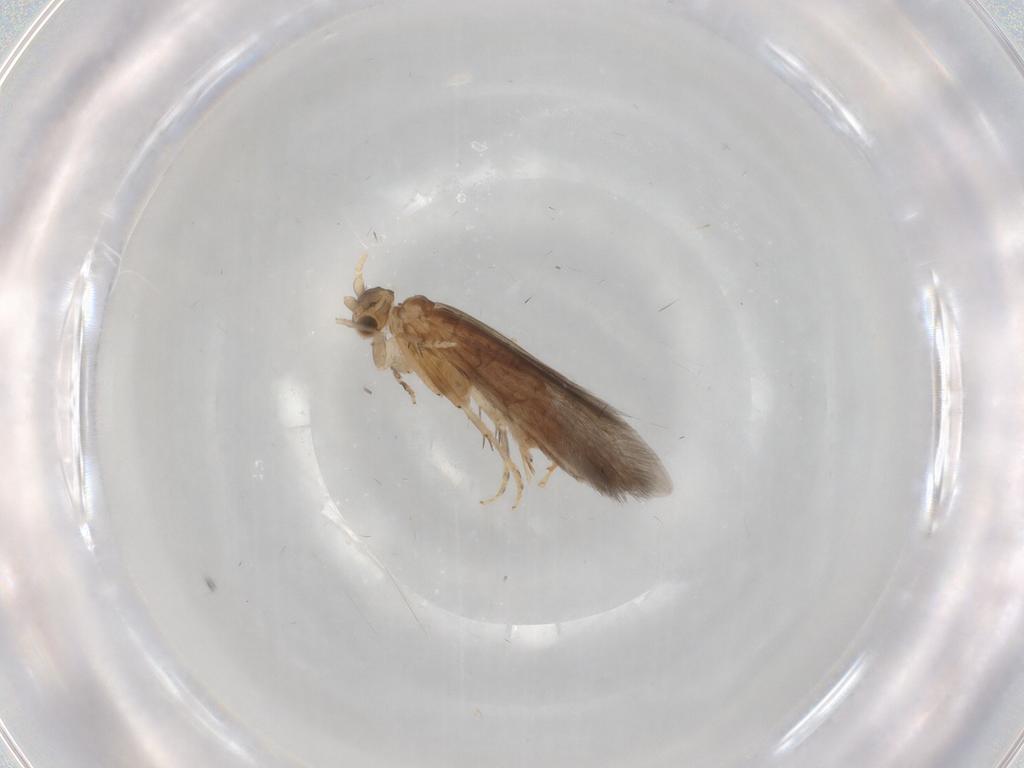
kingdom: Animalia
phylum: Arthropoda
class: Insecta
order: Trichoptera
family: Glossosomatidae
